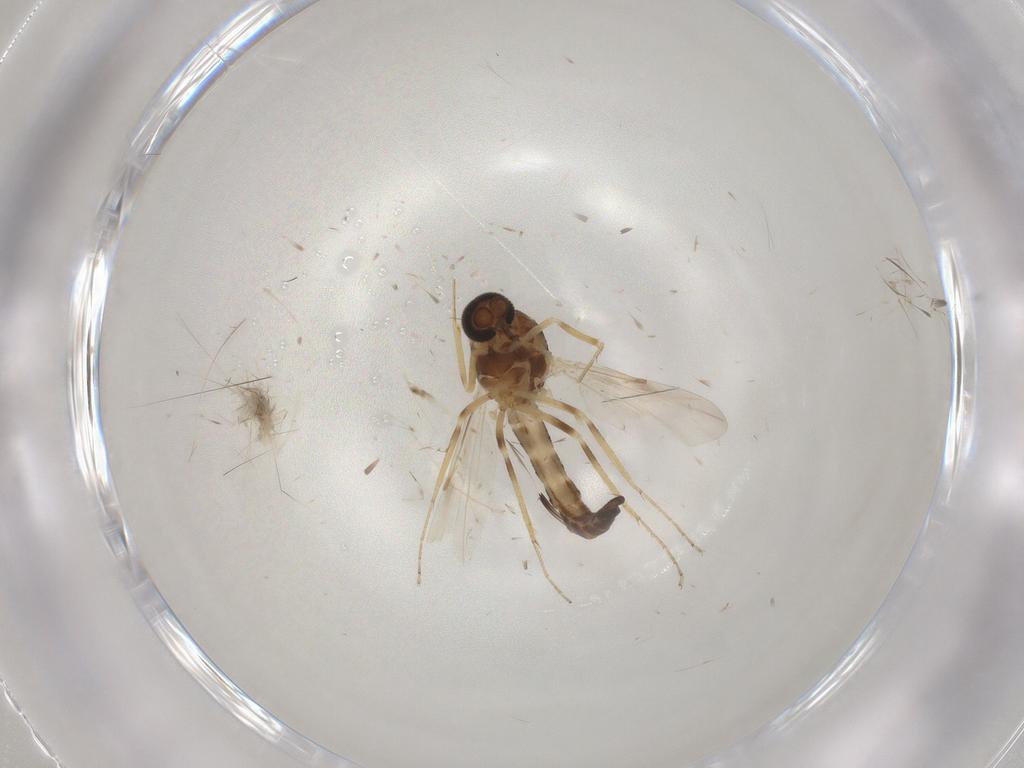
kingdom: Animalia
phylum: Arthropoda
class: Insecta
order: Diptera
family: Ceratopogonidae
